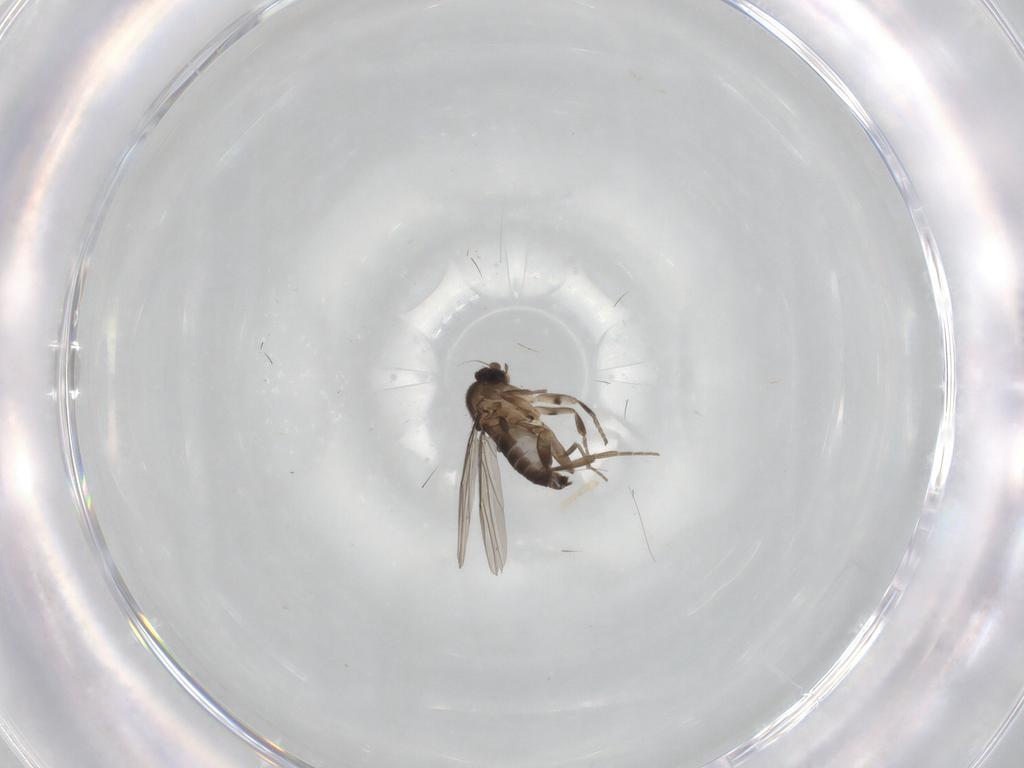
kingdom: Animalia
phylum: Arthropoda
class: Insecta
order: Diptera
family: Phoridae
